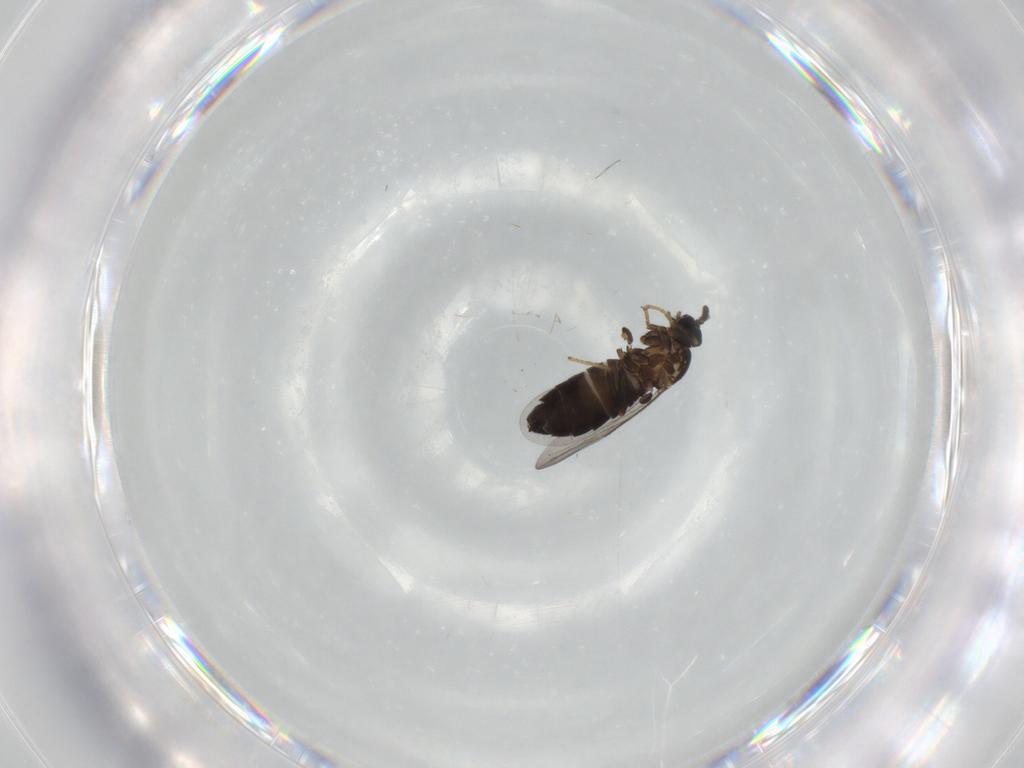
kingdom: Animalia
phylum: Arthropoda
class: Insecta
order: Diptera
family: Scatopsidae
